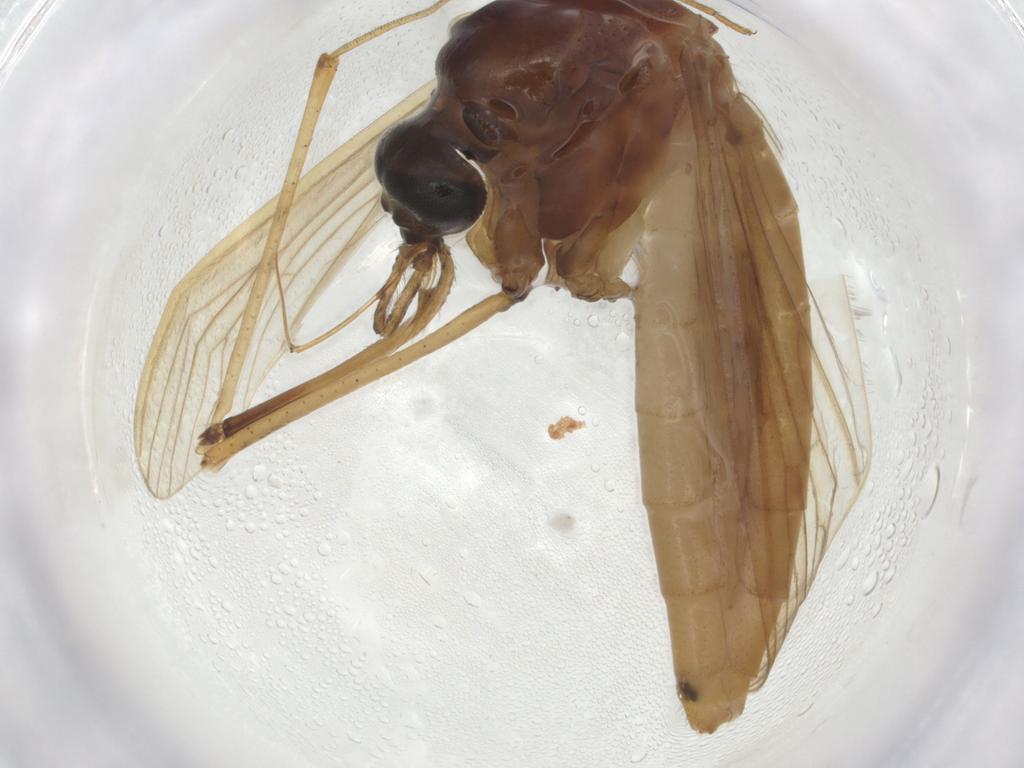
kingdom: Animalia
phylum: Arthropoda
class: Insecta
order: Diptera
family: Culicidae
